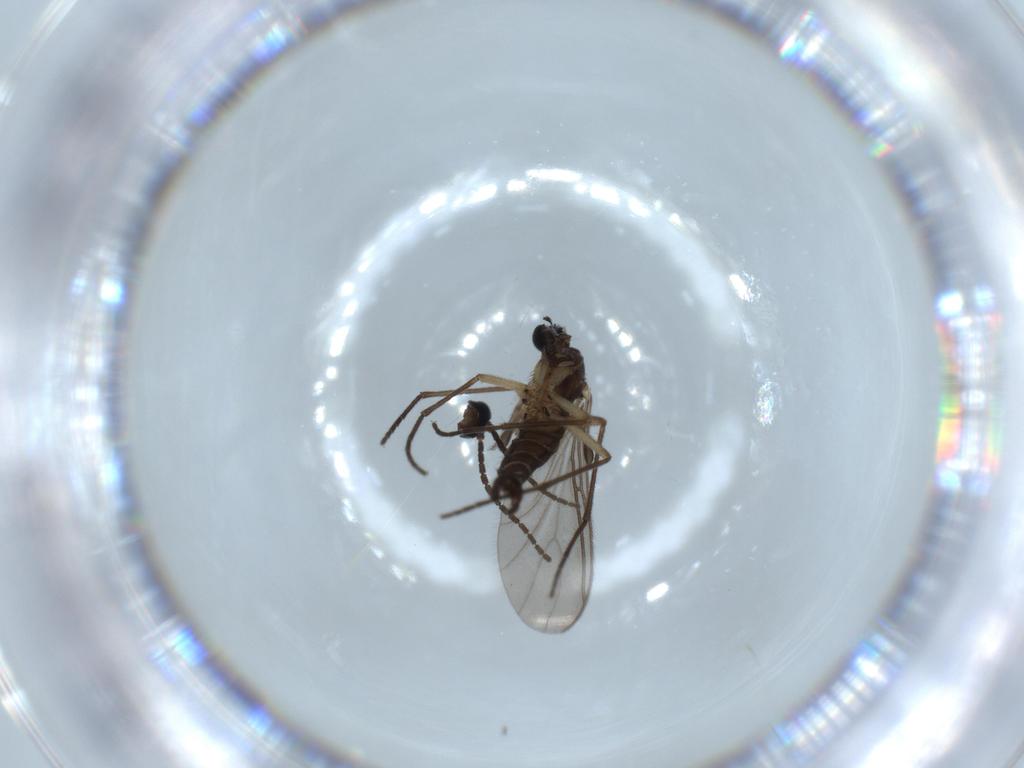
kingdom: Animalia
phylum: Arthropoda
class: Insecta
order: Diptera
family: Sciaridae
